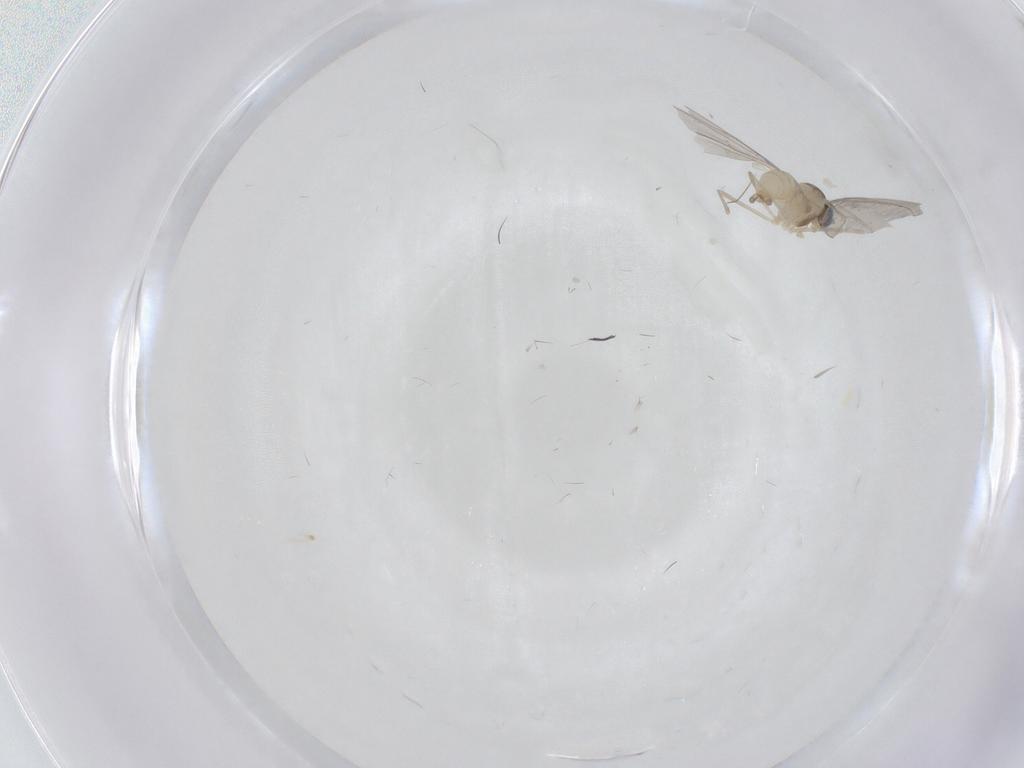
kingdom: Animalia
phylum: Arthropoda
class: Insecta
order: Diptera
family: Cecidomyiidae
